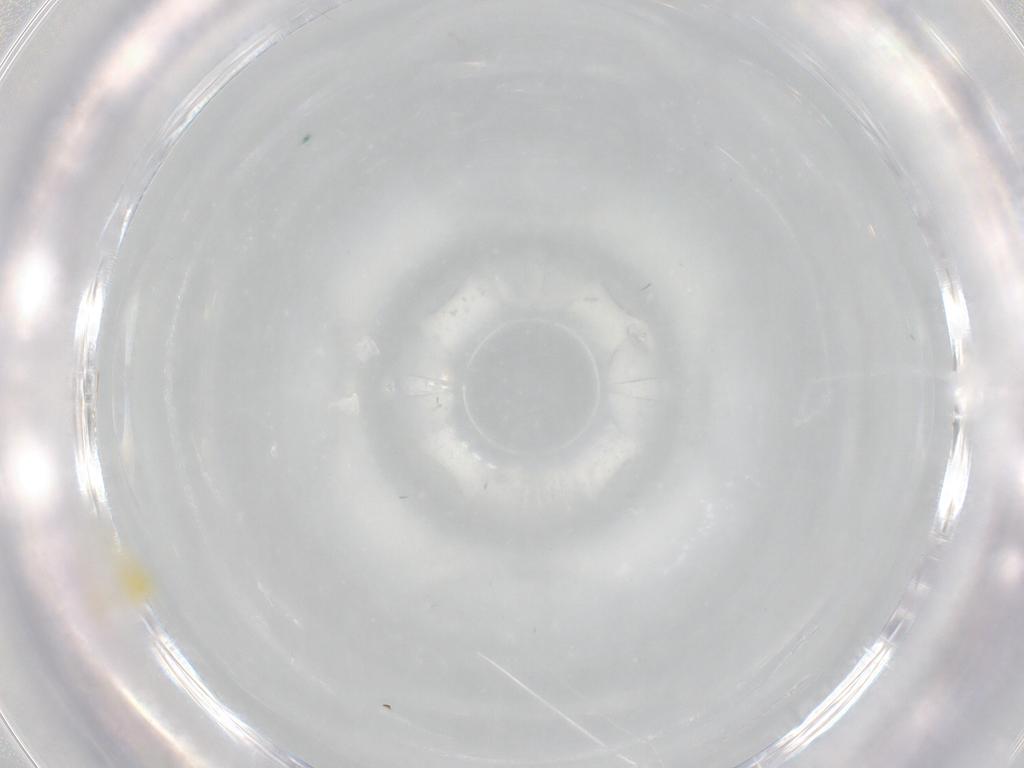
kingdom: Animalia
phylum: Arthropoda
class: Insecta
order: Hemiptera
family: Aleyrodidae
